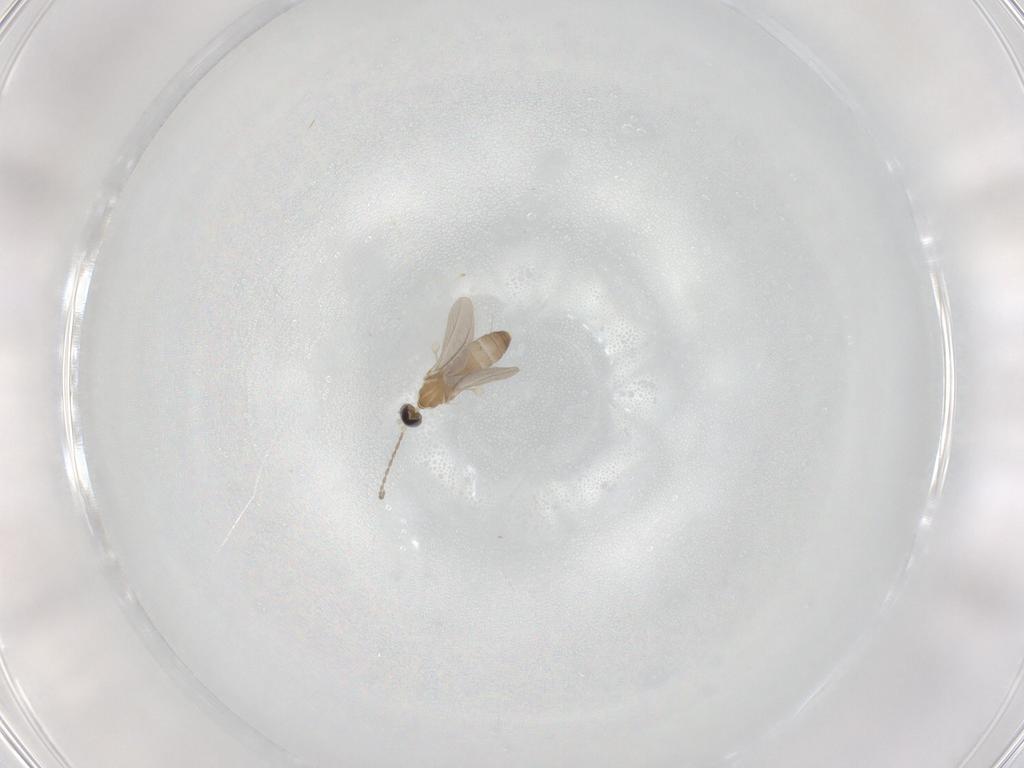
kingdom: Animalia
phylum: Arthropoda
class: Insecta
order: Diptera
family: Cecidomyiidae
